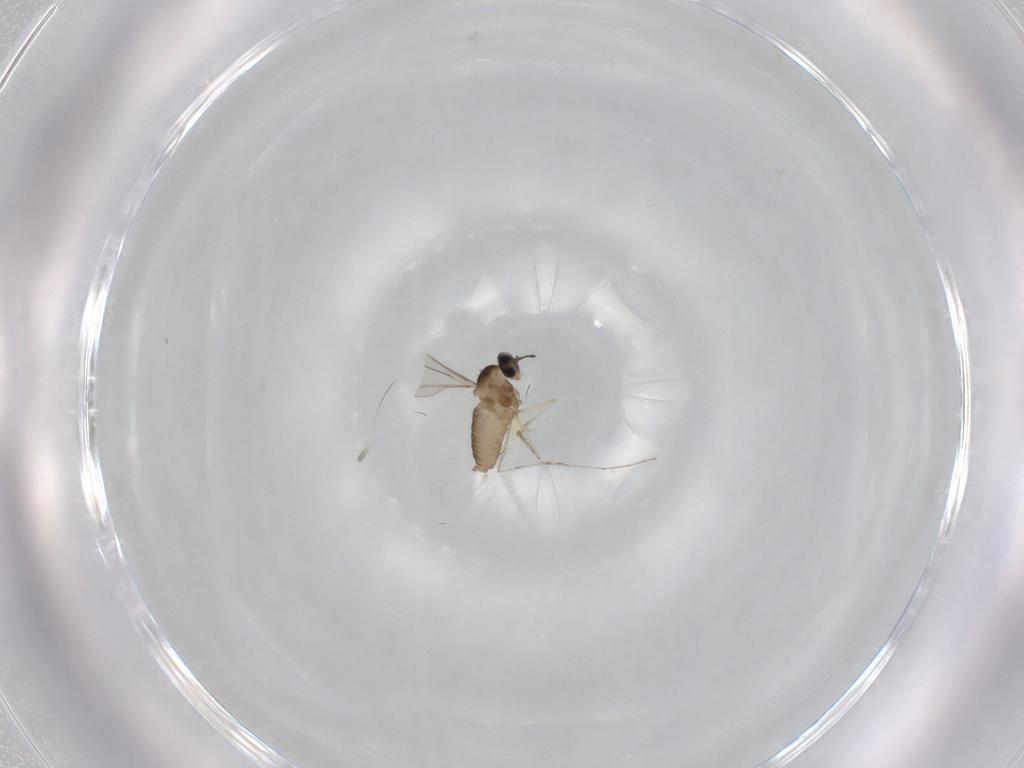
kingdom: Animalia
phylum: Arthropoda
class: Insecta
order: Diptera
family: Cecidomyiidae
